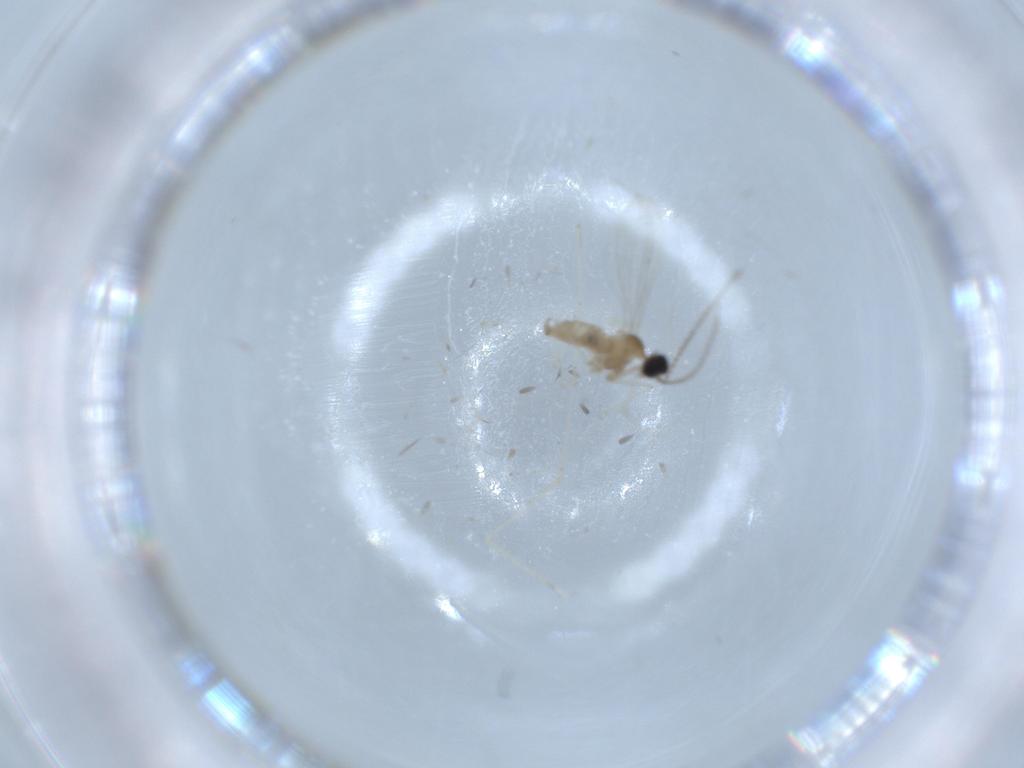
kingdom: Animalia
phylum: Arthropoda
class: Insecta
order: Diptera
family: Cecidomyiidae
